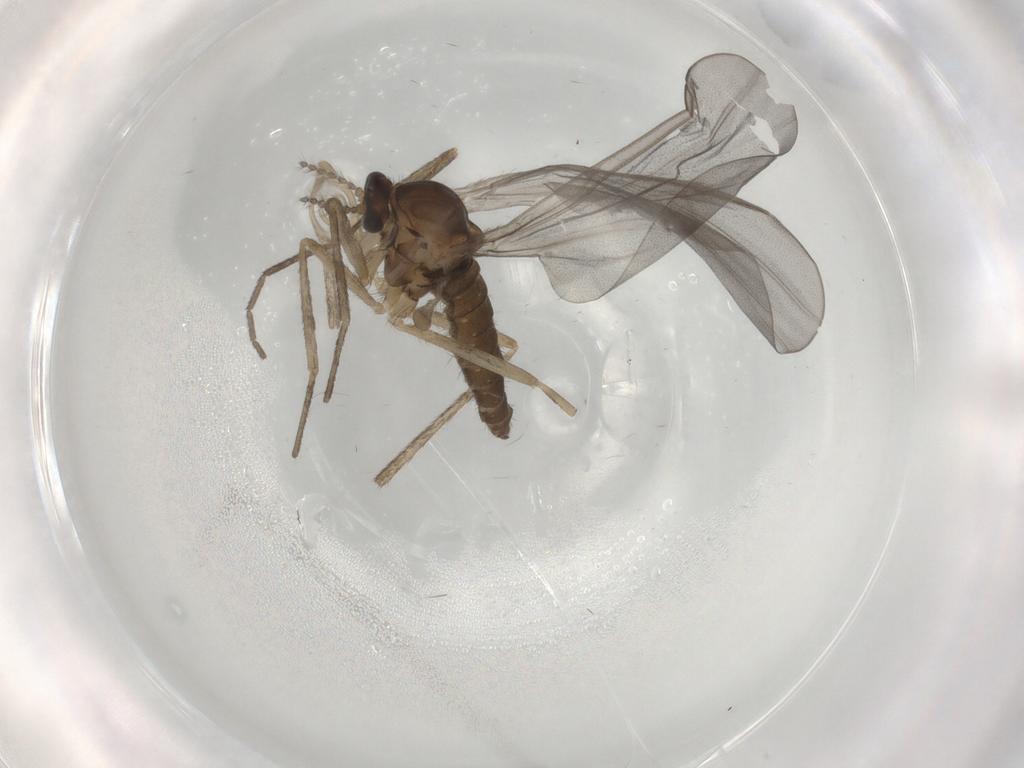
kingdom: Animalia
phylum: Arthropoda
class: Insecta
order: Diptera
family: Cecidomyiidae
